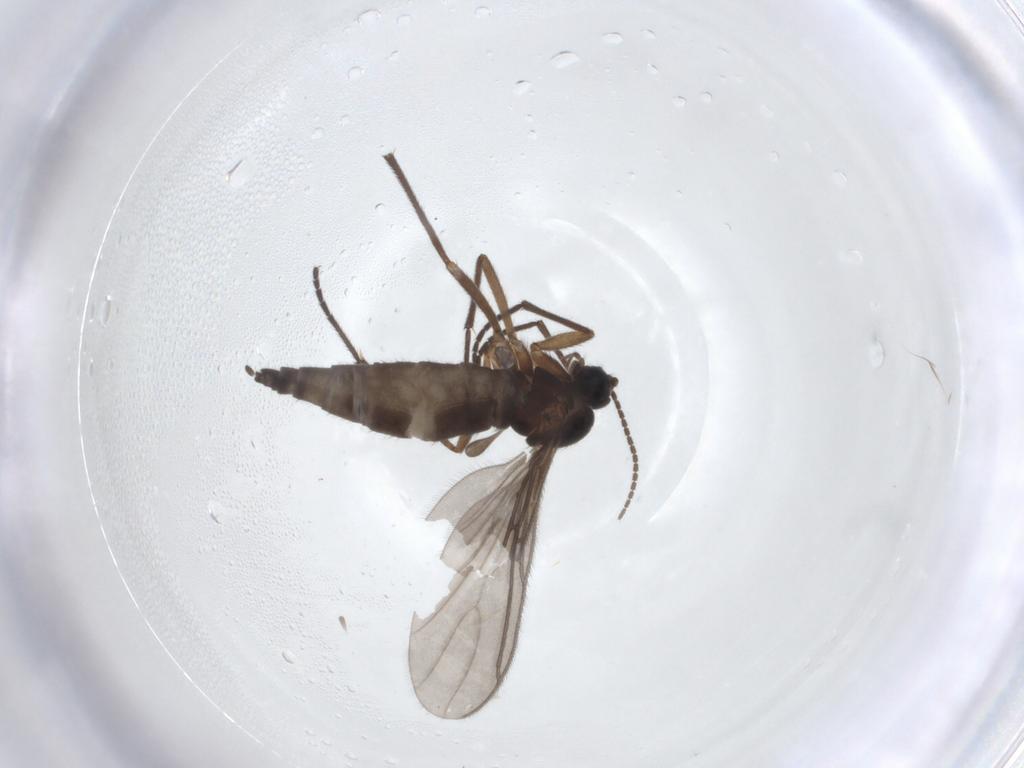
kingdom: Animalia
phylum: Arthropoda
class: Insecta
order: Diptera
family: Sciaridae
